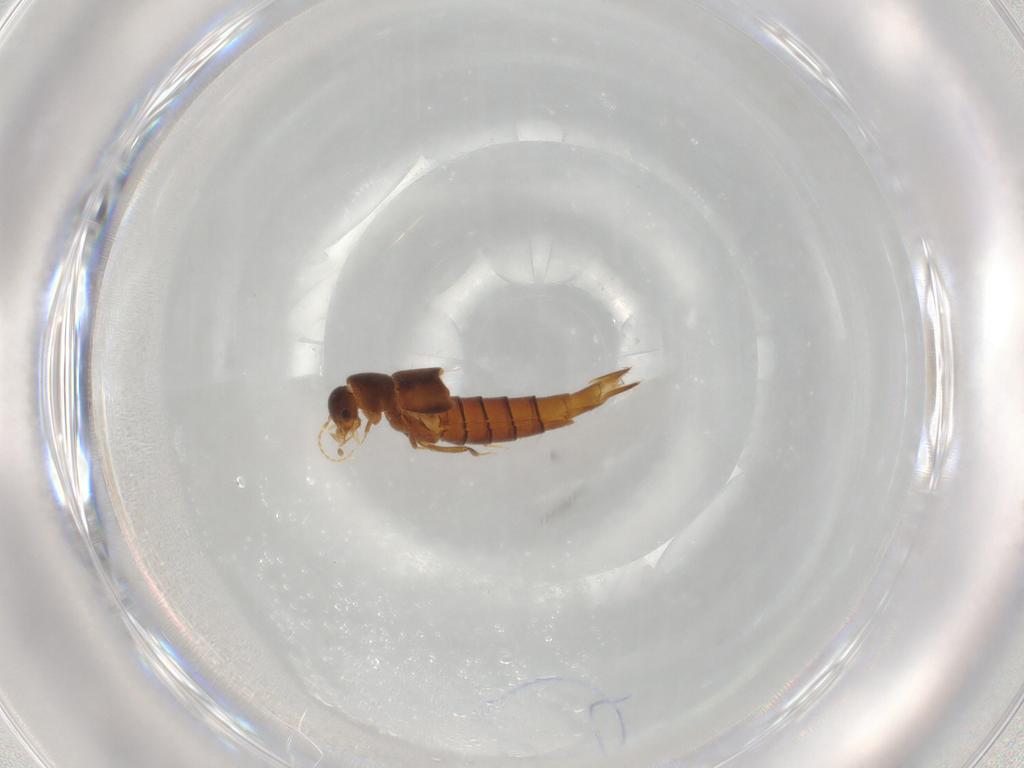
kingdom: Animalia
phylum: Arthropoda
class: Insecta
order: Coleoptera
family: Staphylinidae
